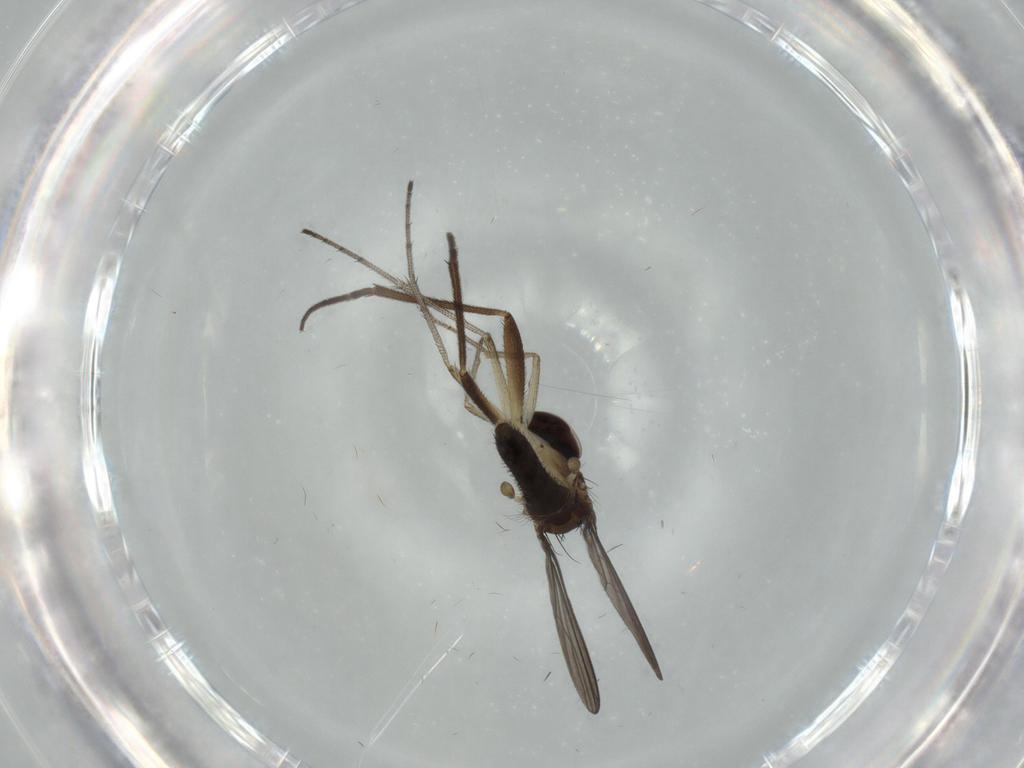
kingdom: Animalia
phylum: Arthropoda
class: Insecta
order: Diptera
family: Dolichopodidae
